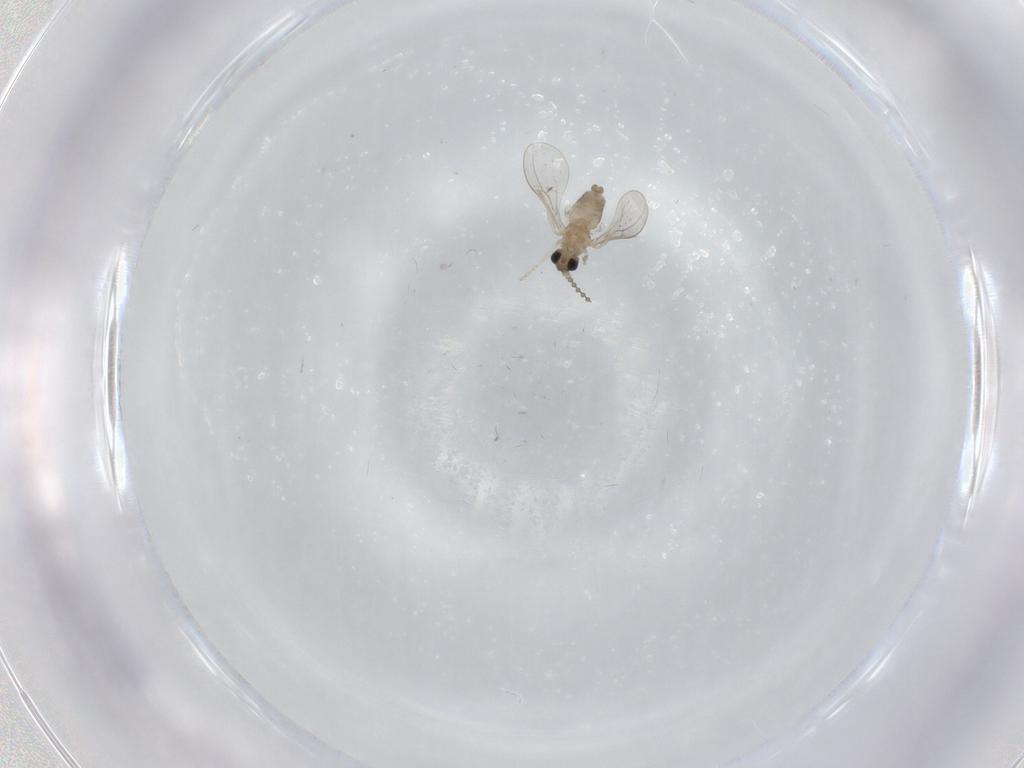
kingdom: Animalia
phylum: Arthropoda
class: Insecta
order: Diptera
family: Cecidomyiidae
